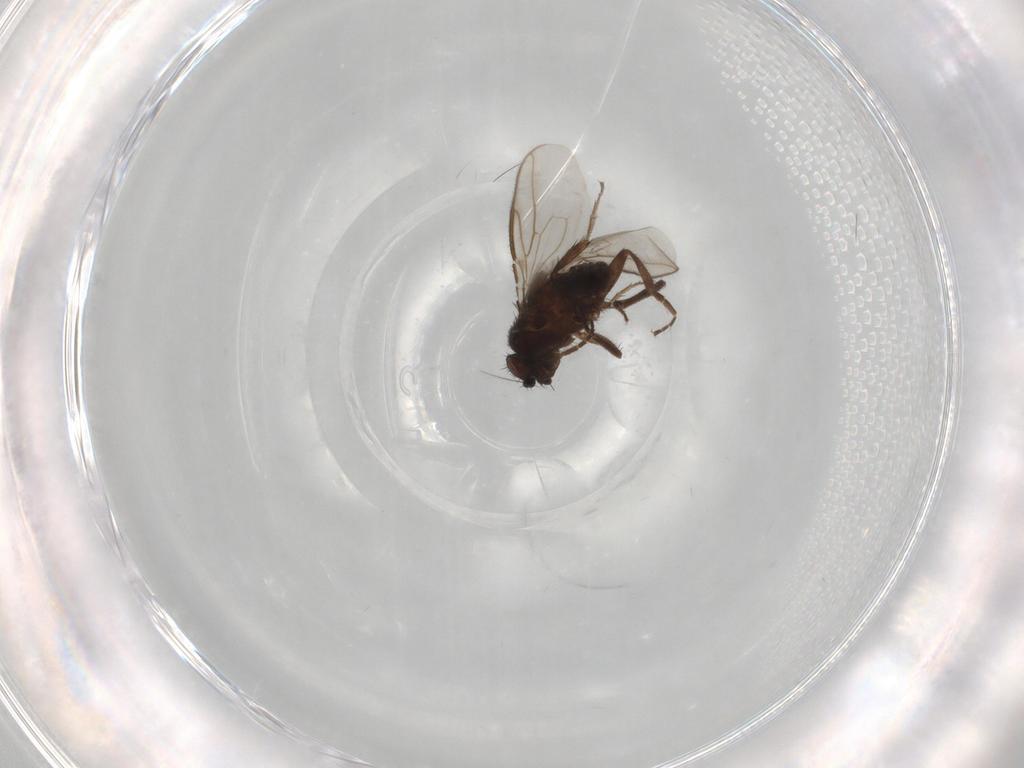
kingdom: Animalia
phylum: Arthropoda
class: Insecta
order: Diptera
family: Syrphidae
